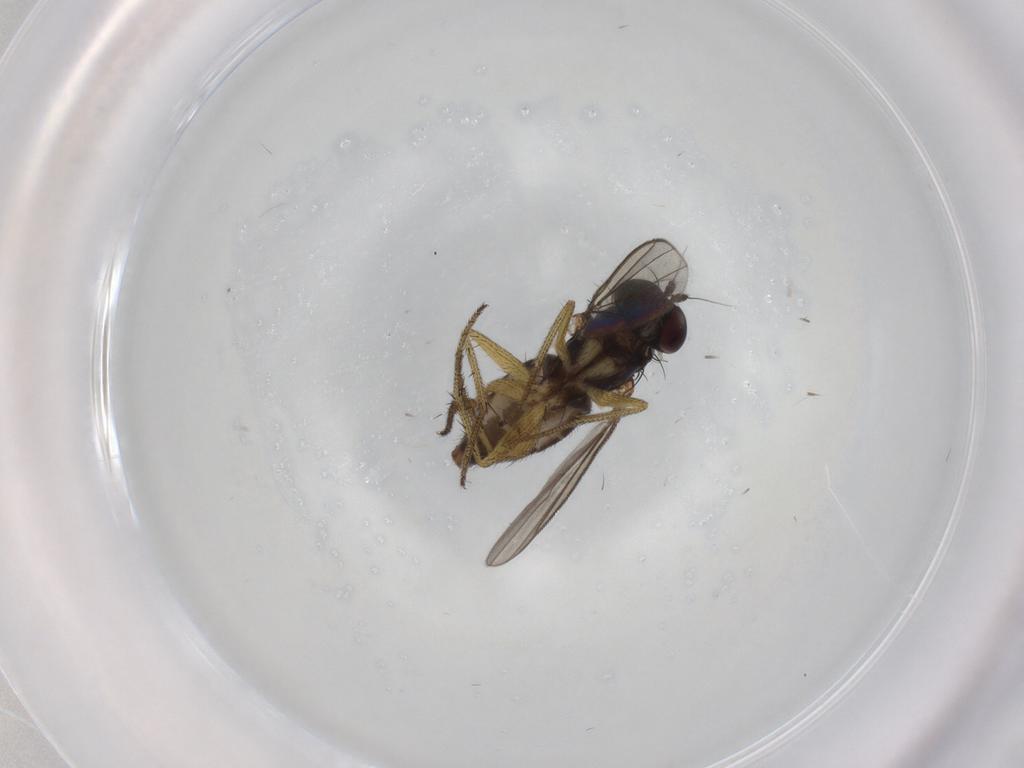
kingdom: Animalia
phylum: Arthropoda
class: Insecta
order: Diptera
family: Dolichopodidae
